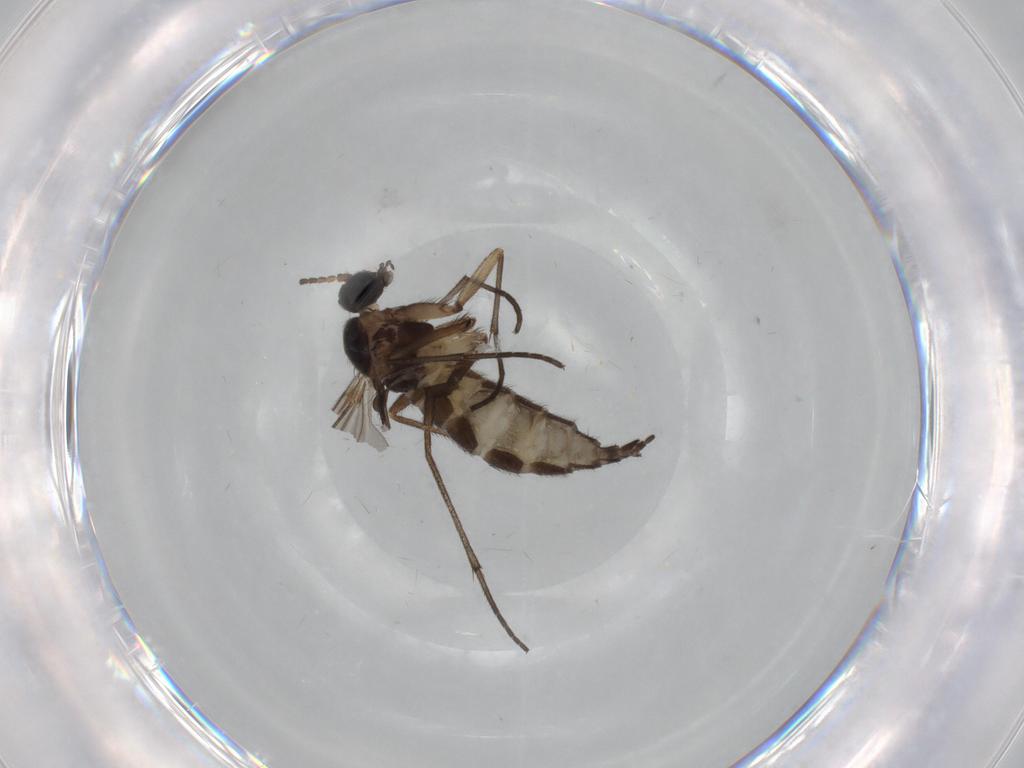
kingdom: Animalia
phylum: Arthropoda
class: Insecta
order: Diptera
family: Sciaridae
